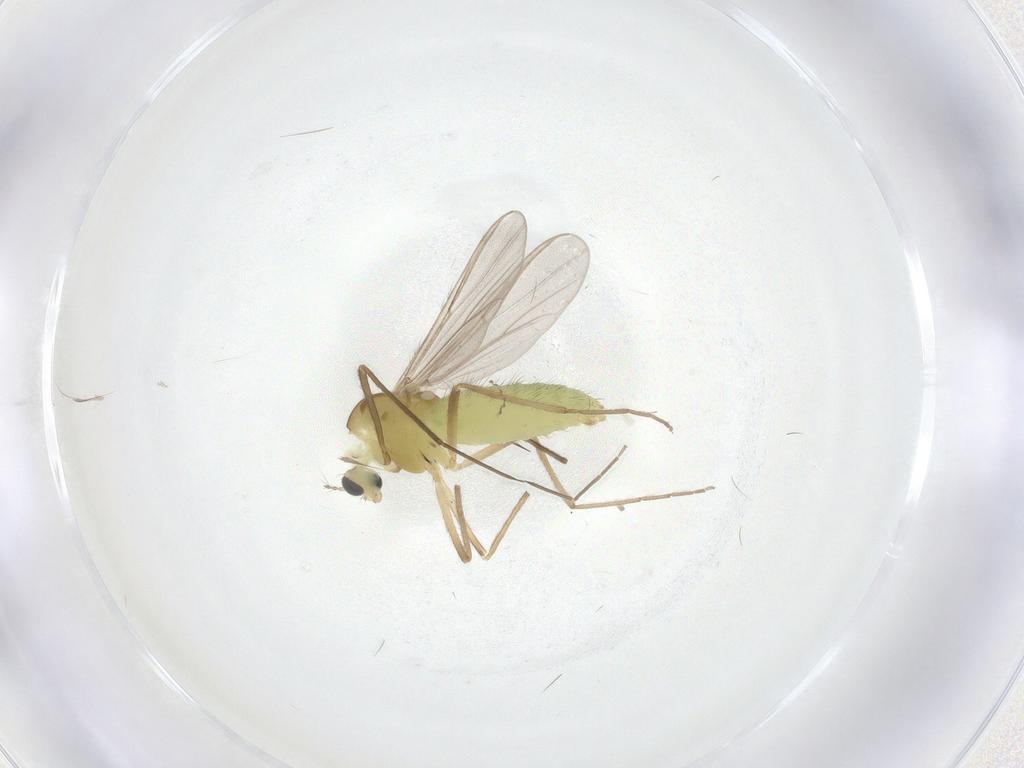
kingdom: Animalia
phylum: Arthropoda
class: Insecta
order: Diptera
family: Chironomidae
